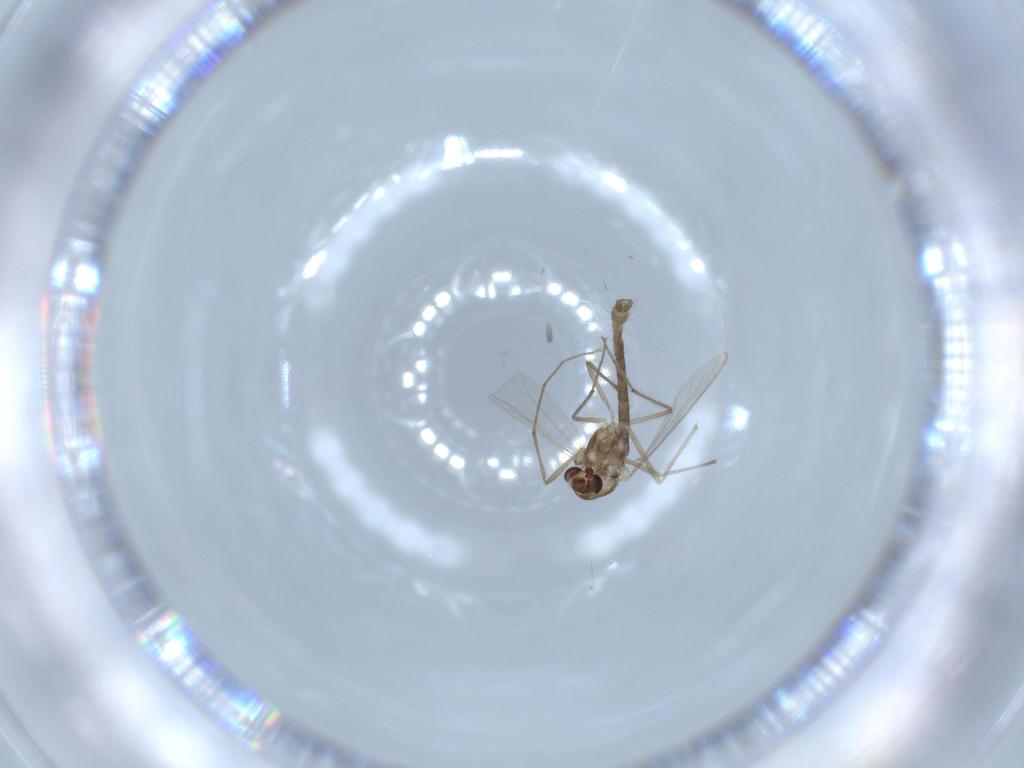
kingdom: Animalia
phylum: Arthropoda
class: Insecta
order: Diptera
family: Chironomidae
